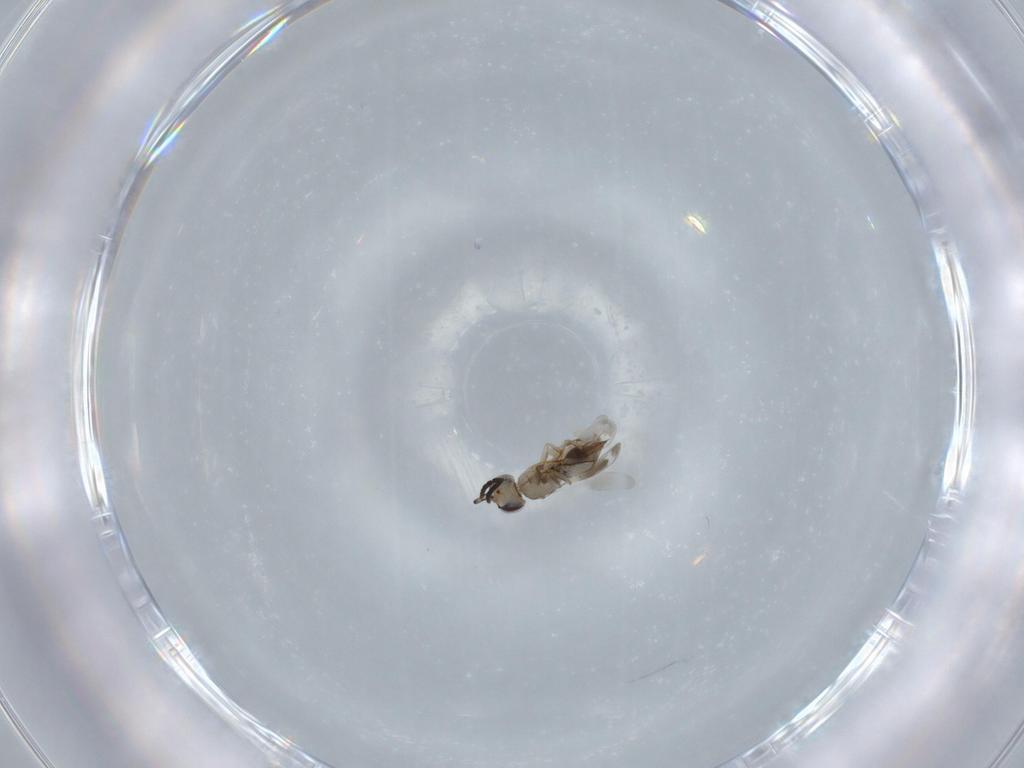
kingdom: Animalia
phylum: Arthropoda
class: Insecta
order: Hymenoptera
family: Scelionidae
